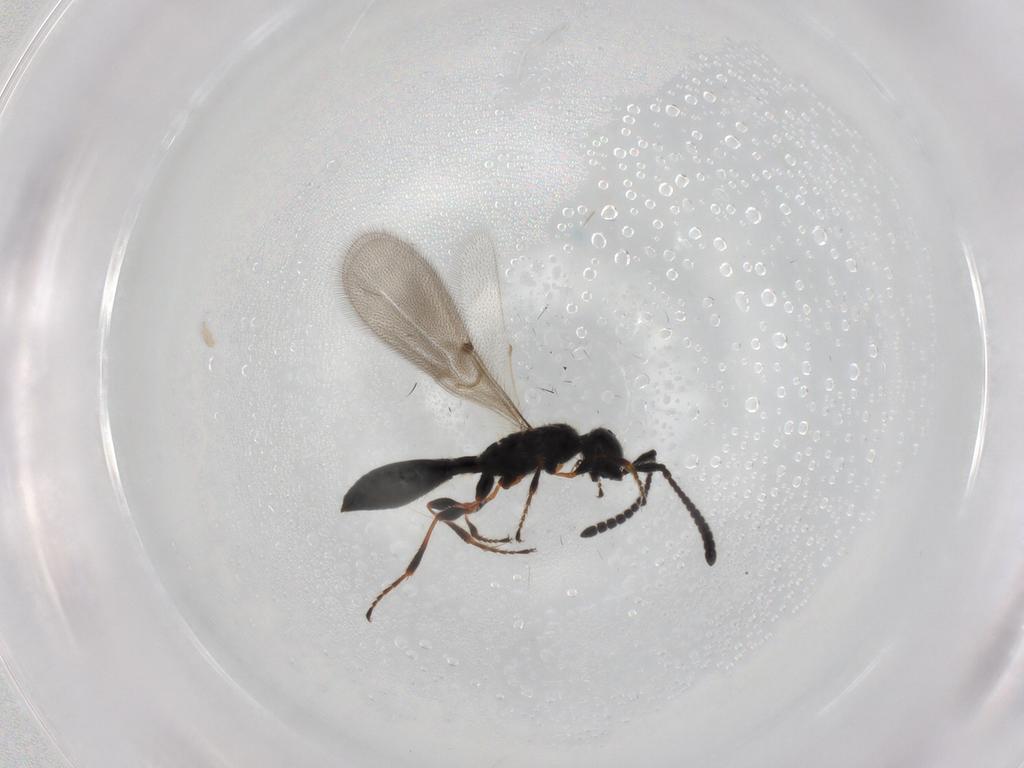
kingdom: Animalia
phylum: Arthropoda
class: Insecta
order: Hymenoptera
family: Diapriidae
